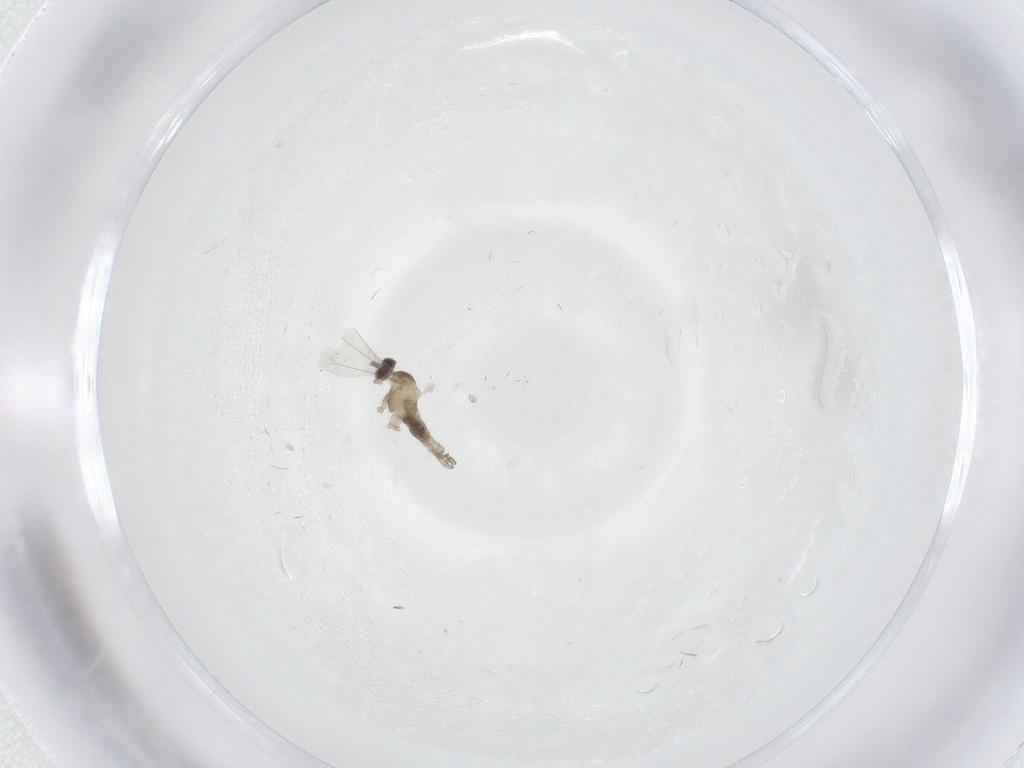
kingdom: Animalia
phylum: Arthropoda
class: Insecta
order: Diptera
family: Cecidomyiidae
